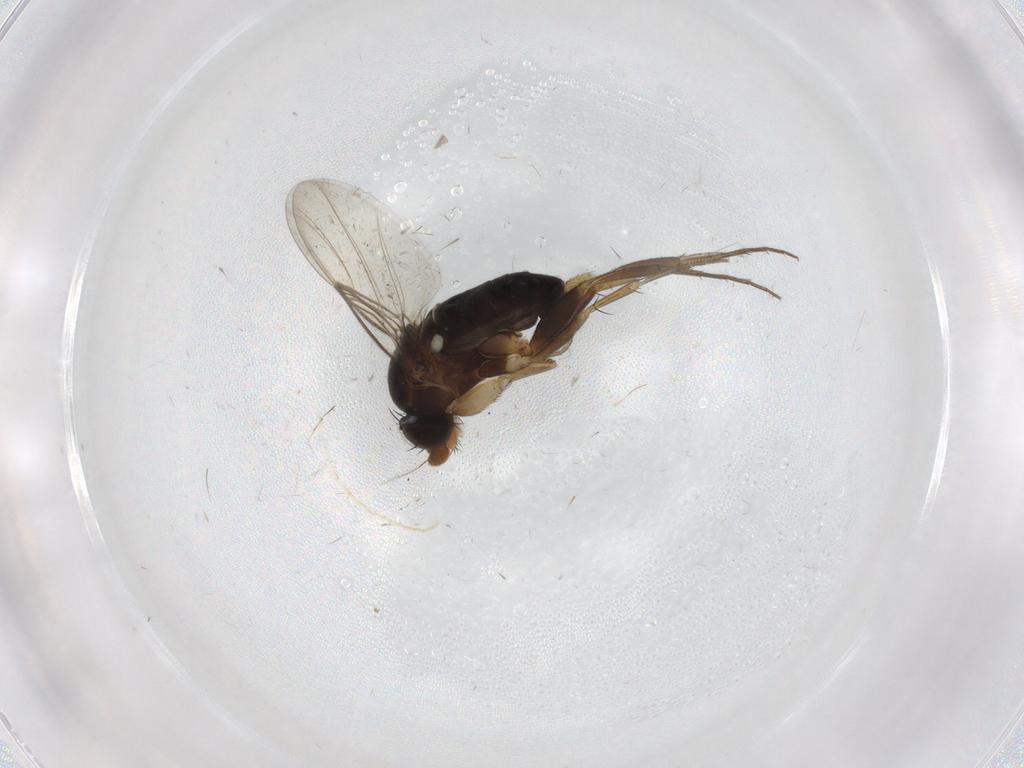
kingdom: Animalia
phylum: Arthropoda
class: Insecta
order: Diptera
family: Phoridae
